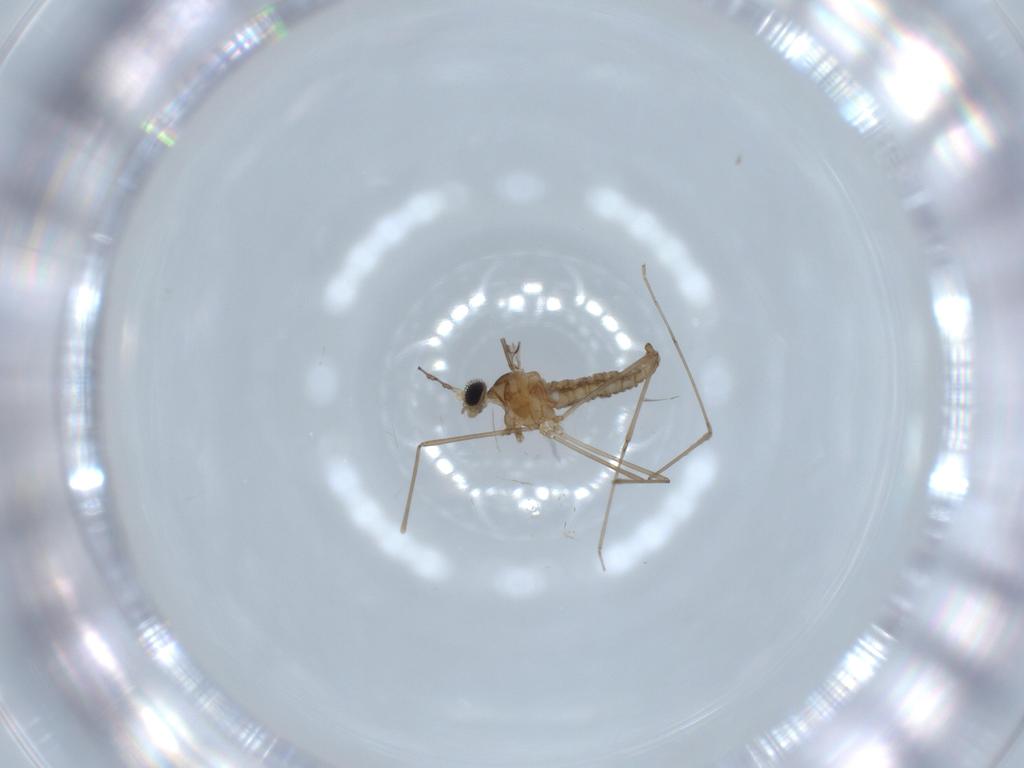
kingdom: Animalia
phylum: Arthropoda
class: Insecta
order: Diptera
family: Cecidomyiidae
